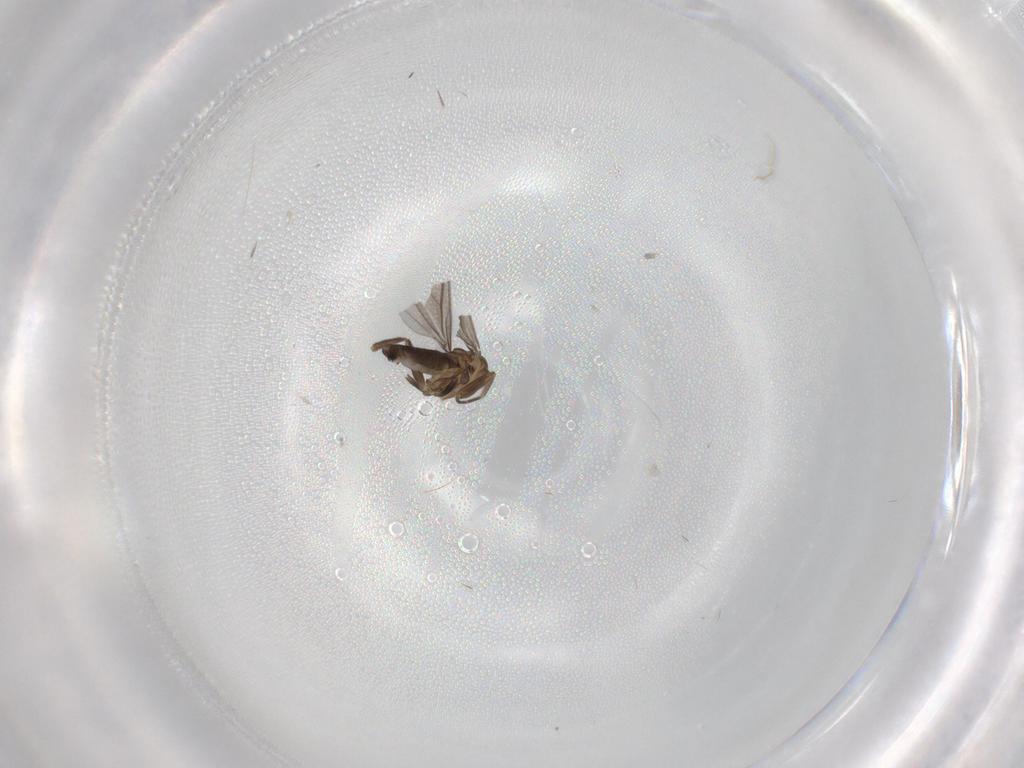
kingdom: Animalia
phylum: Arthropoda
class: Insecta
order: Diptera
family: Phoridae
